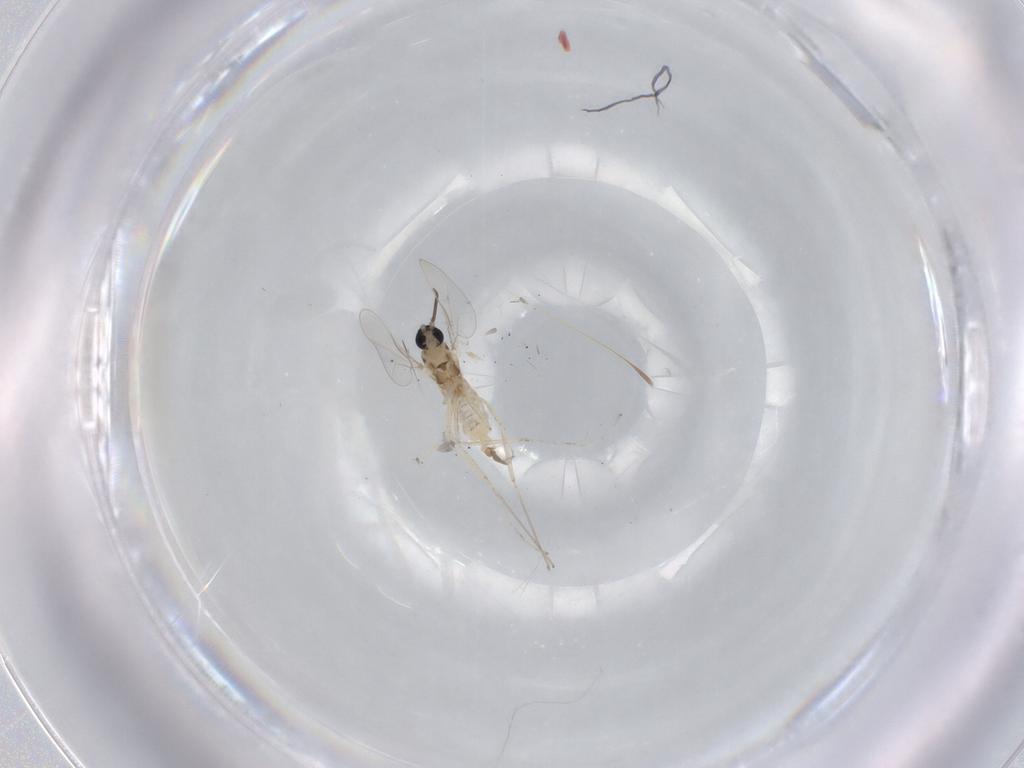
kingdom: Animalia
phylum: Arthropoda
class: Insecta
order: Diptera
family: Cecidomyiidae
